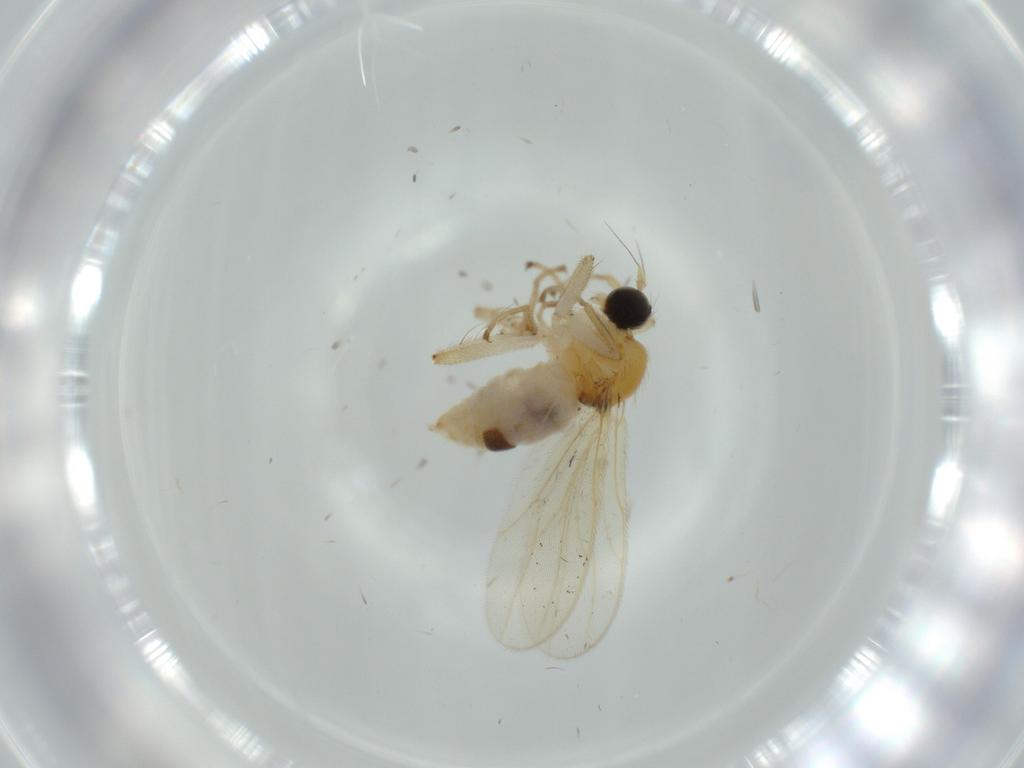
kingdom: Animalia
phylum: Arthropoda
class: Insecta
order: Diptera
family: Hybotidae
